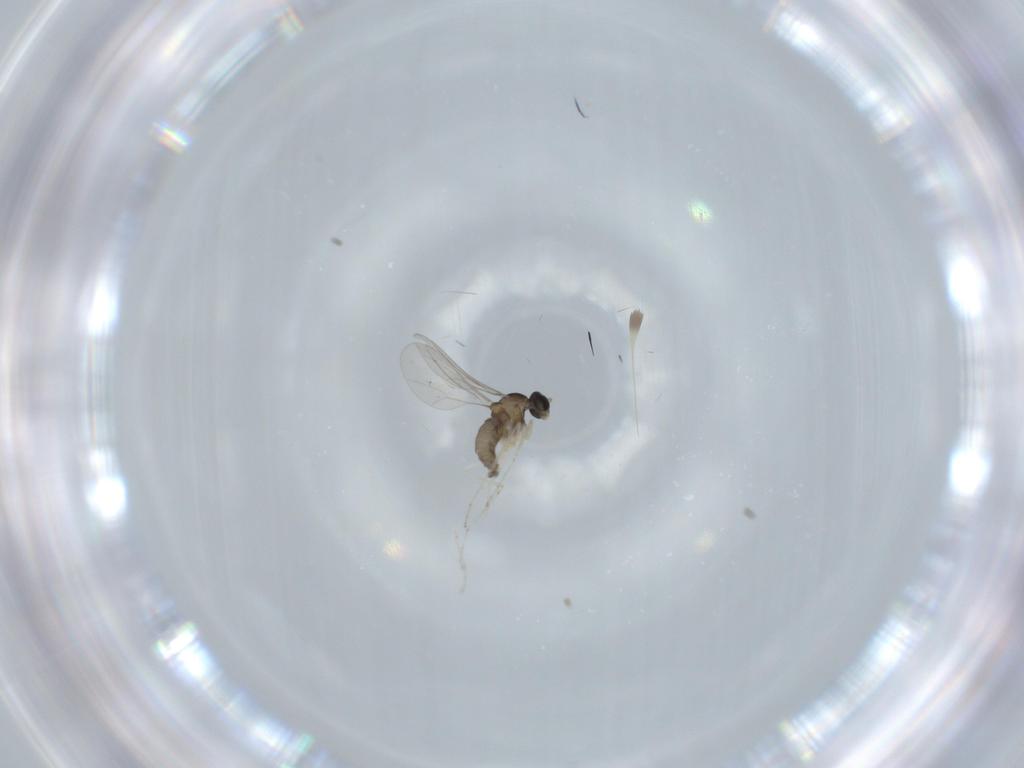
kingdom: Animalia
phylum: Arthropoda
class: Insecta
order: Diptera
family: Cecidomyiidae
